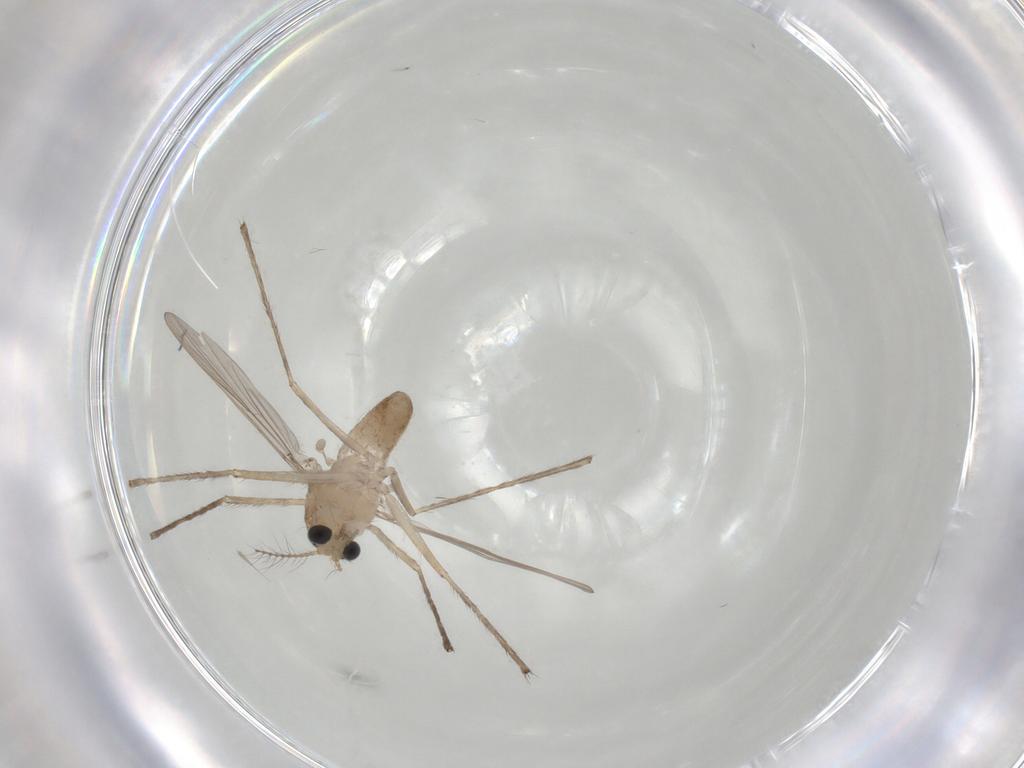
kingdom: Animalia
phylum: Arthropoda
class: Insecta
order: Diptera
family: Chironomidae
